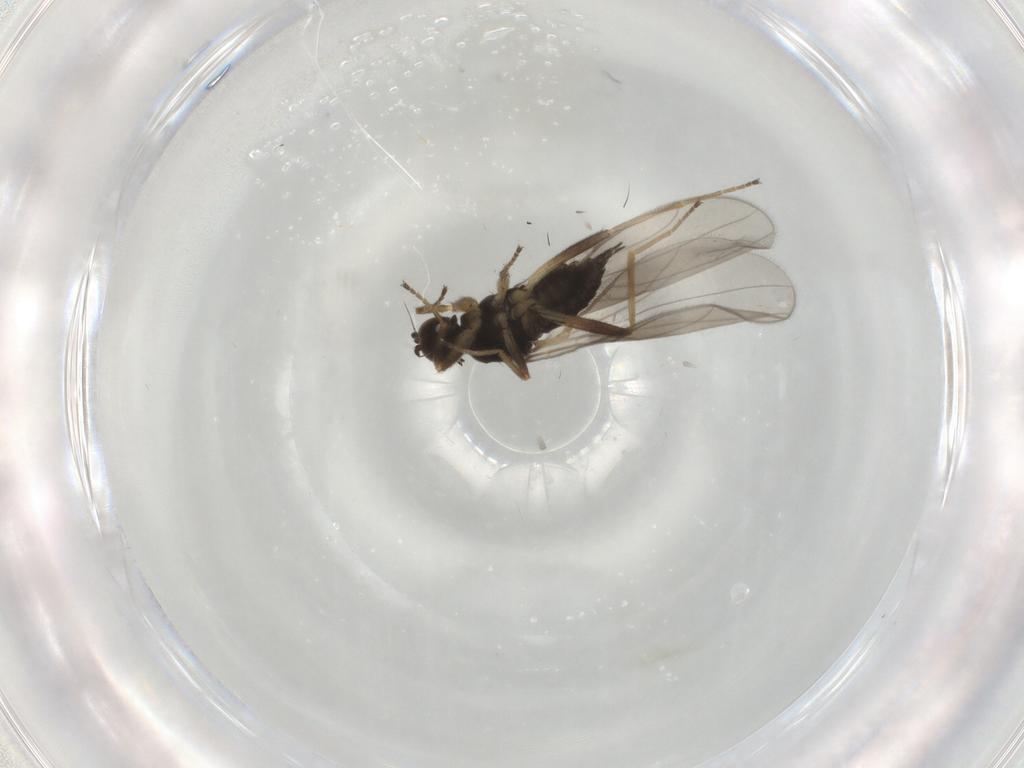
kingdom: Animalia
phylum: Arthropoda
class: Insecta
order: Diptera
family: Hybotidae
